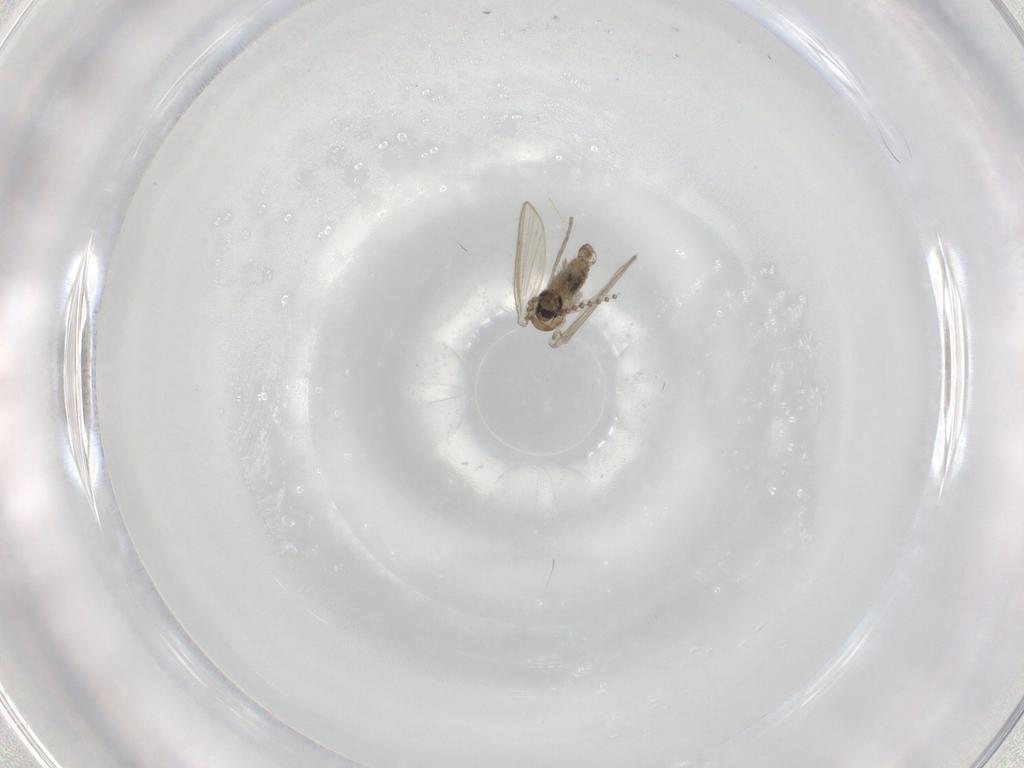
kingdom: Animalia
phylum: Arthropoda
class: Insecta
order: Diptera
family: Psychodidae
